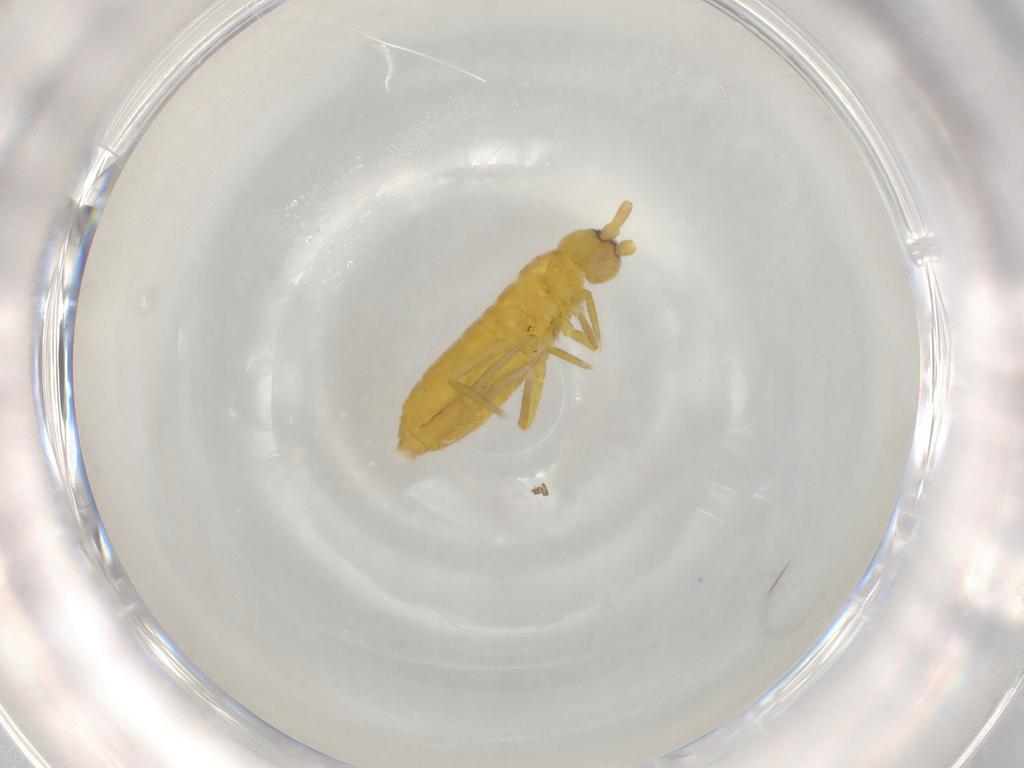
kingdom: Animalia
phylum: Arthropoda
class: Collembola
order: Entomobryomorpha
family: Tomoceridae
